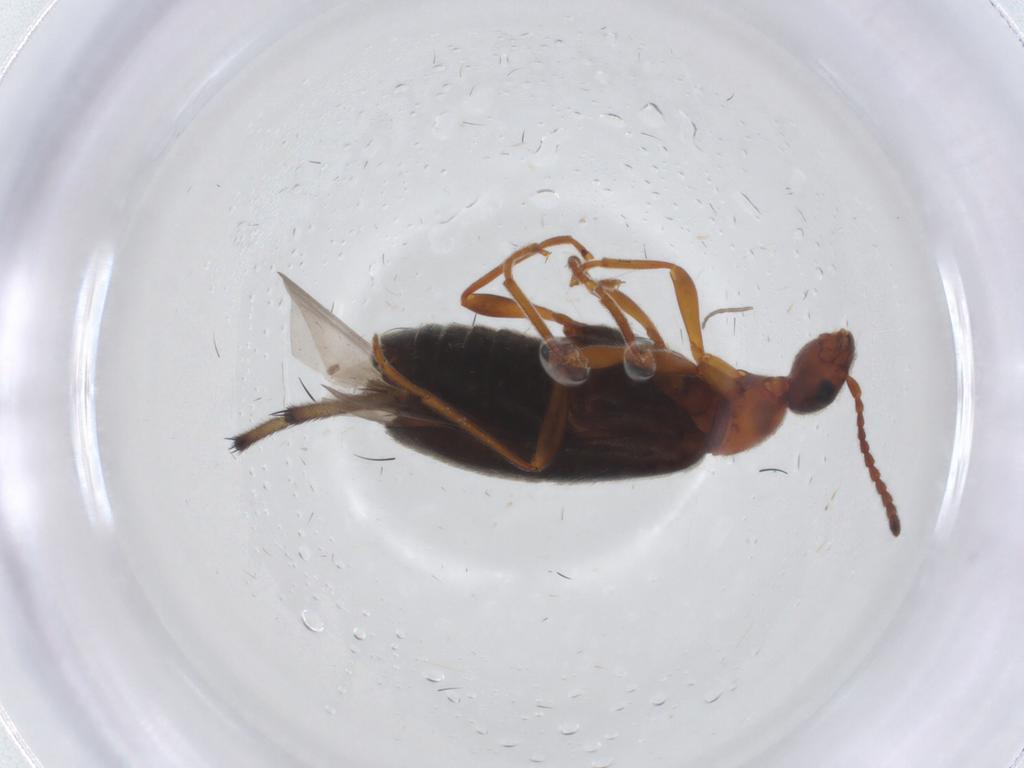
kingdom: Animalia
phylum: Arthropoda
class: Insecta
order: Coleoptera
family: Anthicidae
